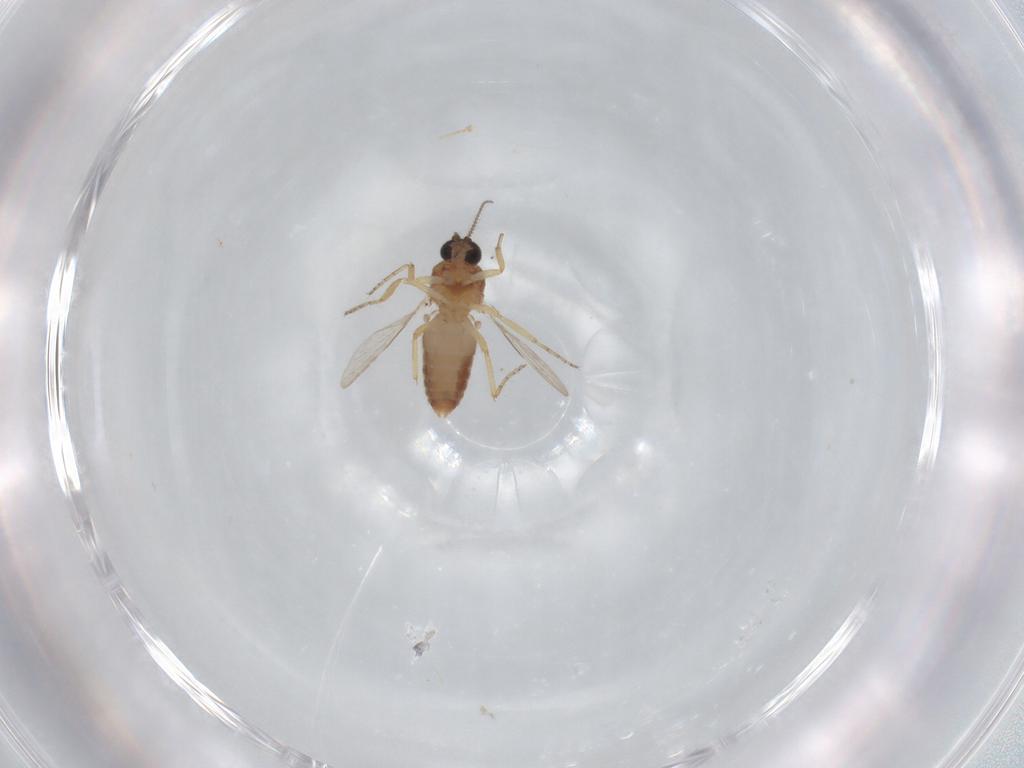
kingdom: Animalia
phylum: Arthropoda
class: Insecta
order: Diptera
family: Ceratopogonidae
